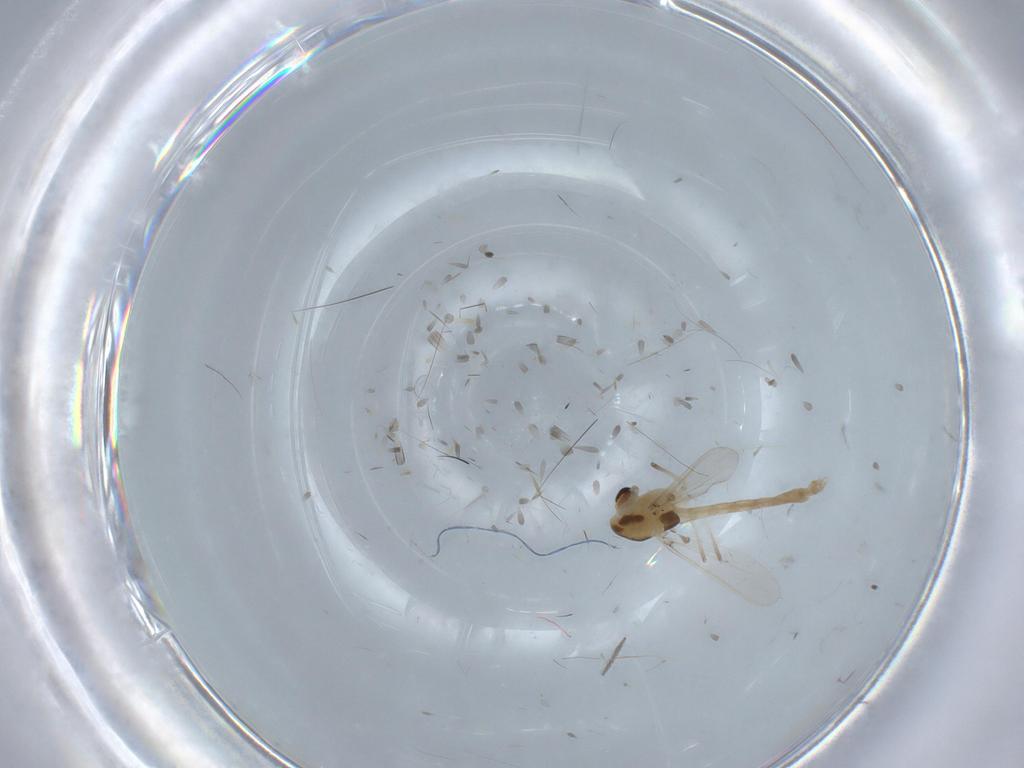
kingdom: Animalia
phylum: Arthropoda
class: Insecta
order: Diptera
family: Chironomidae
